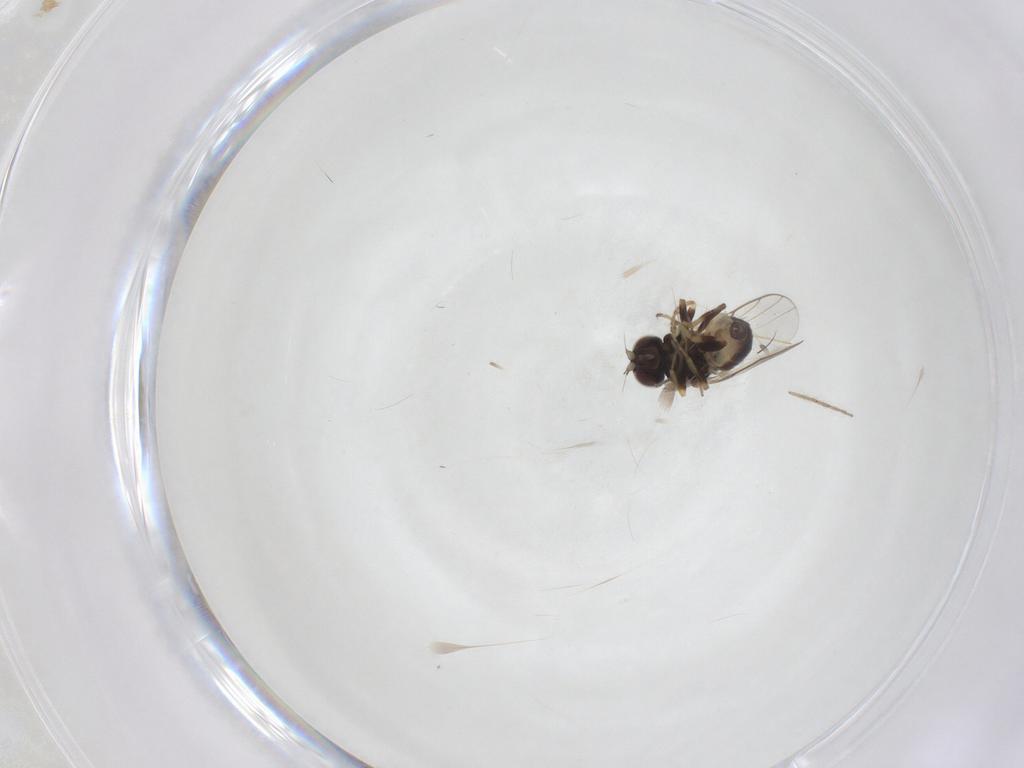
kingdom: Animalia
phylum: Arthropoda
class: Insecta
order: Diptera
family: Chloropidae
